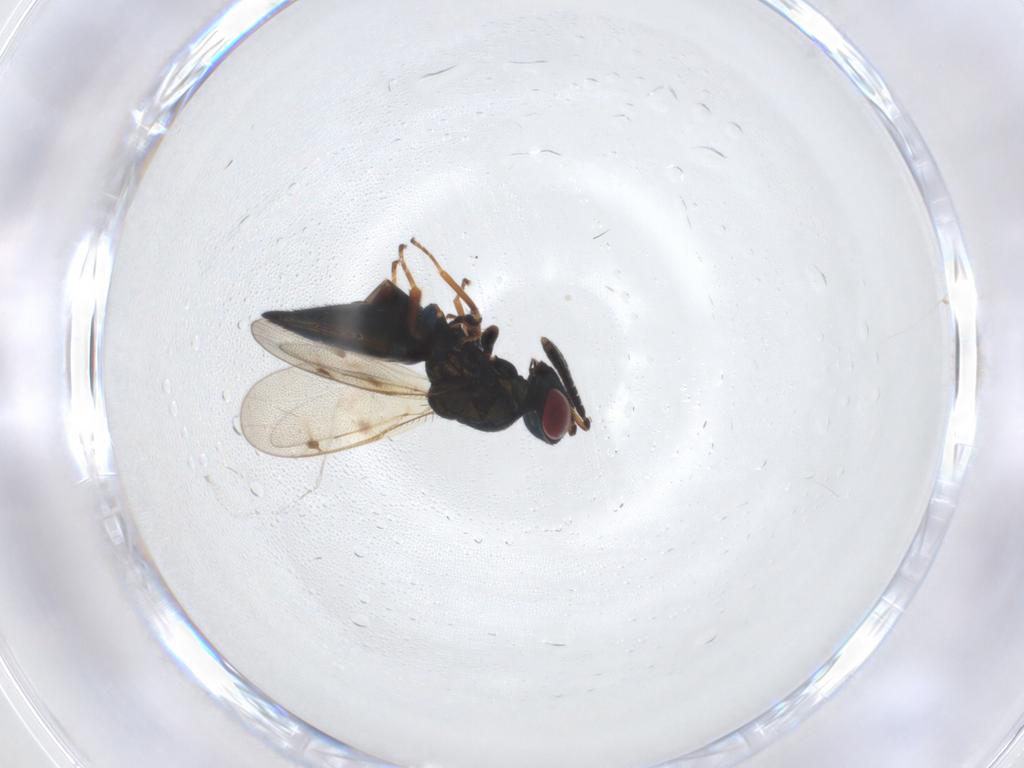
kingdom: Animalia
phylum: Arthropoda
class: Insecta
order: Hymenoptera
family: Pteromalidae
